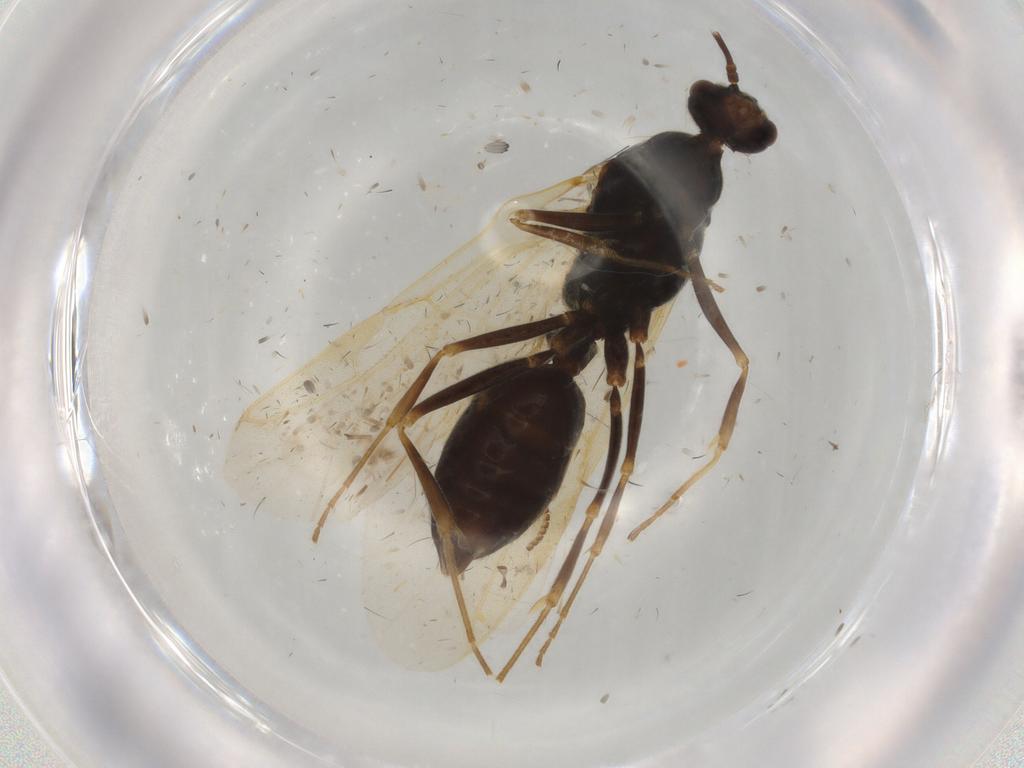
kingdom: Animalia
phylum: Arthropoda
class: Insecta
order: Hymenoptera
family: Formicidae
